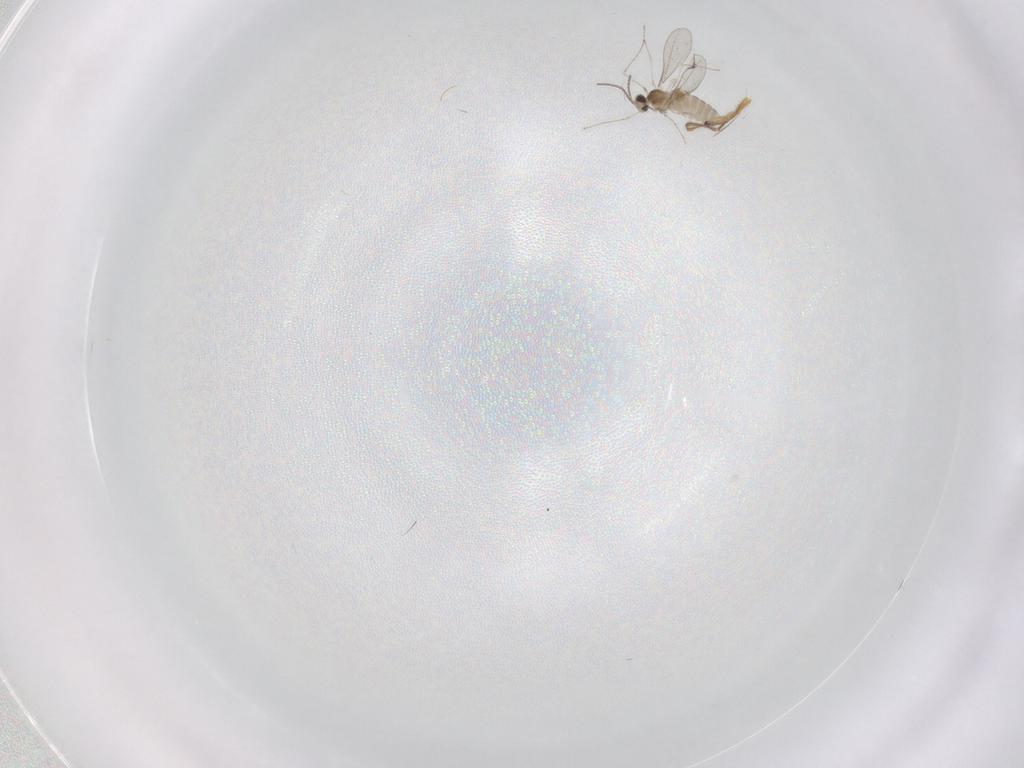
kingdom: Animalia
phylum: Arthropoda
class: Insecta
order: Diptera
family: Cecidomyiidae
